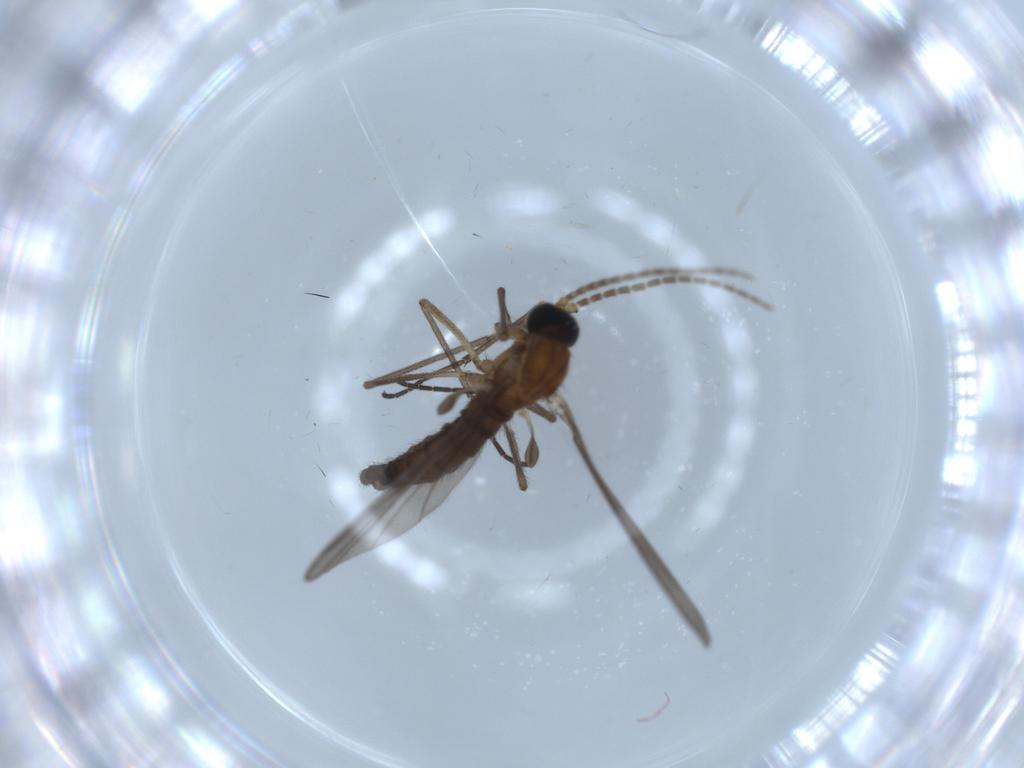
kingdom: Animalia
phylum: Arthropoda
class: Insecta
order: Diptera
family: Sciaridae
